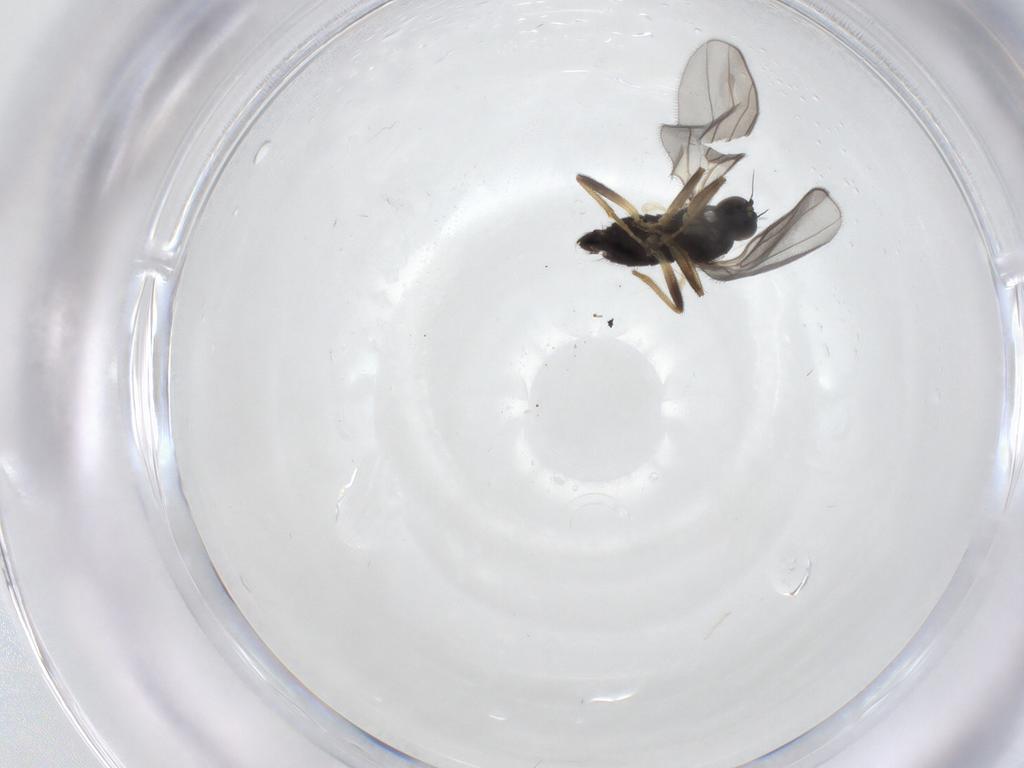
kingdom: Animalia
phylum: Arthropoda
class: Insecta
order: Diptera
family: Hybotidae
